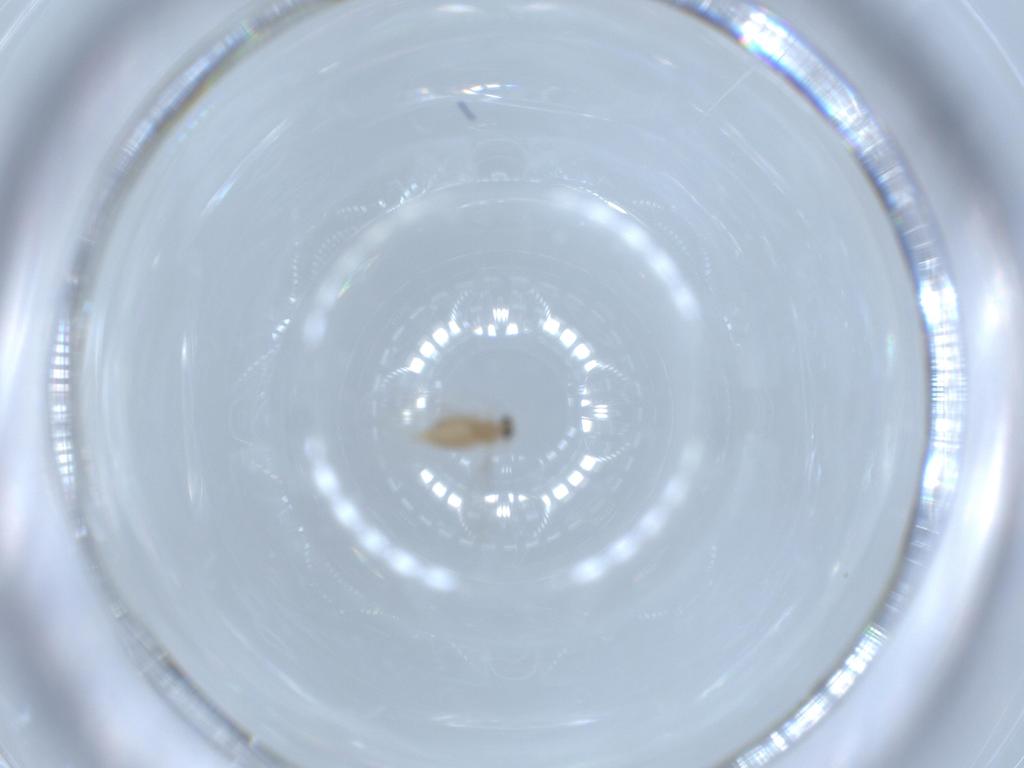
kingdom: Animalia
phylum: Arthropoda
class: Insecta
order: Diptera
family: Cecidomyiidae
